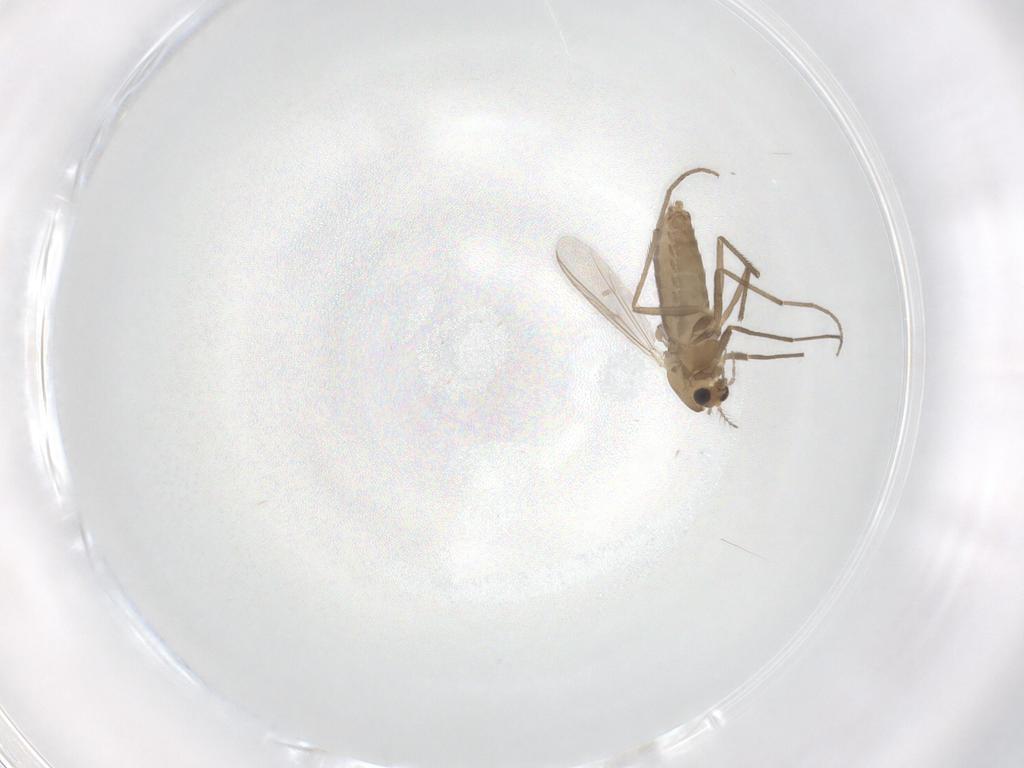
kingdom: Animalia
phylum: Arthropoda
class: Insecta
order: Diptera
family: Chironomidae
